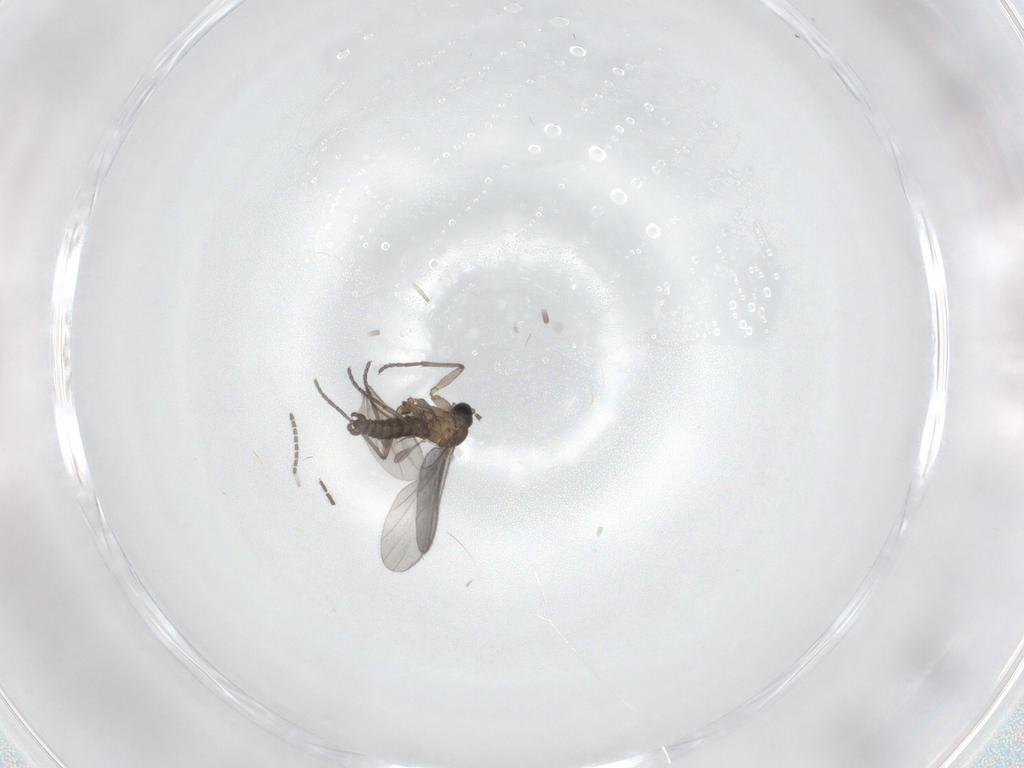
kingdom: Animalia
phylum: Arthropoda
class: Insecta
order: Diptera
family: Sciaridae
